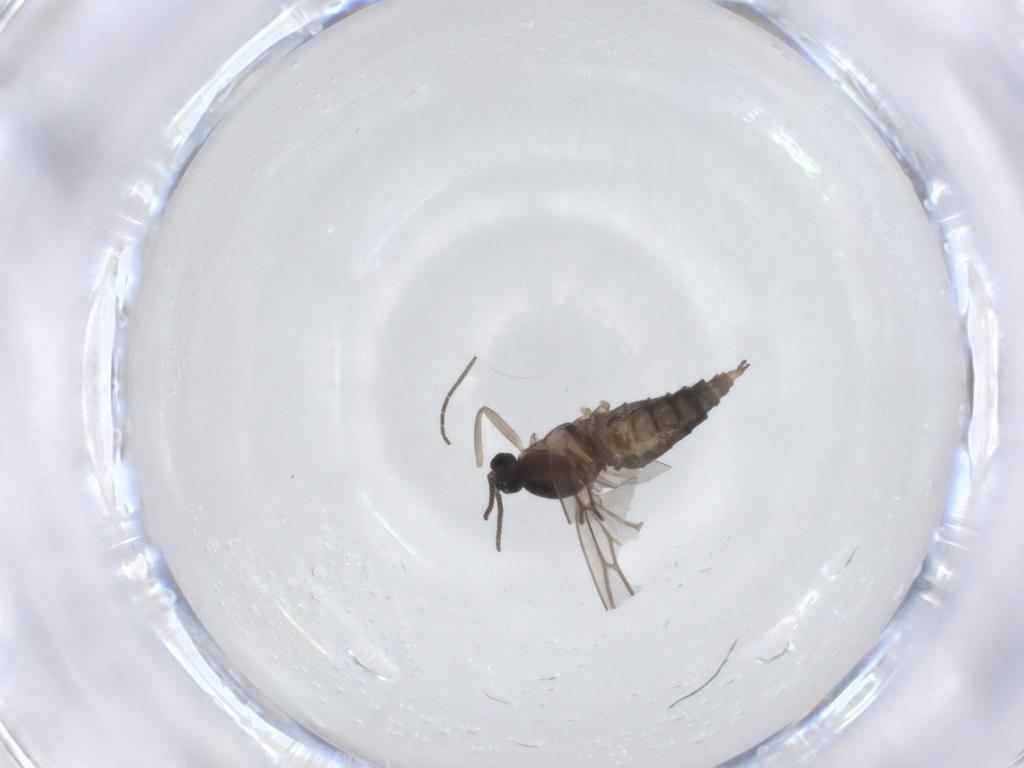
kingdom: Animalia
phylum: Arthropoda
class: Insecta
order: Diptera
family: Cecidomyiidae
